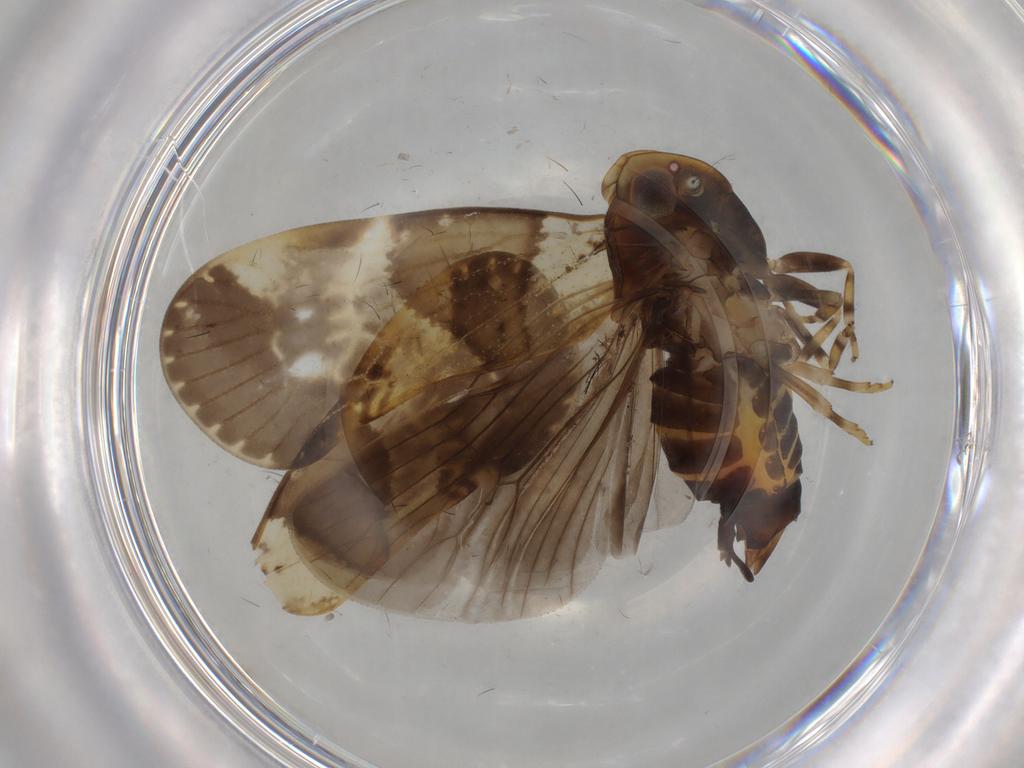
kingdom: Animalia
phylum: Arthropoda
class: Insecta
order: Hemiptera
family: Cixiidae
